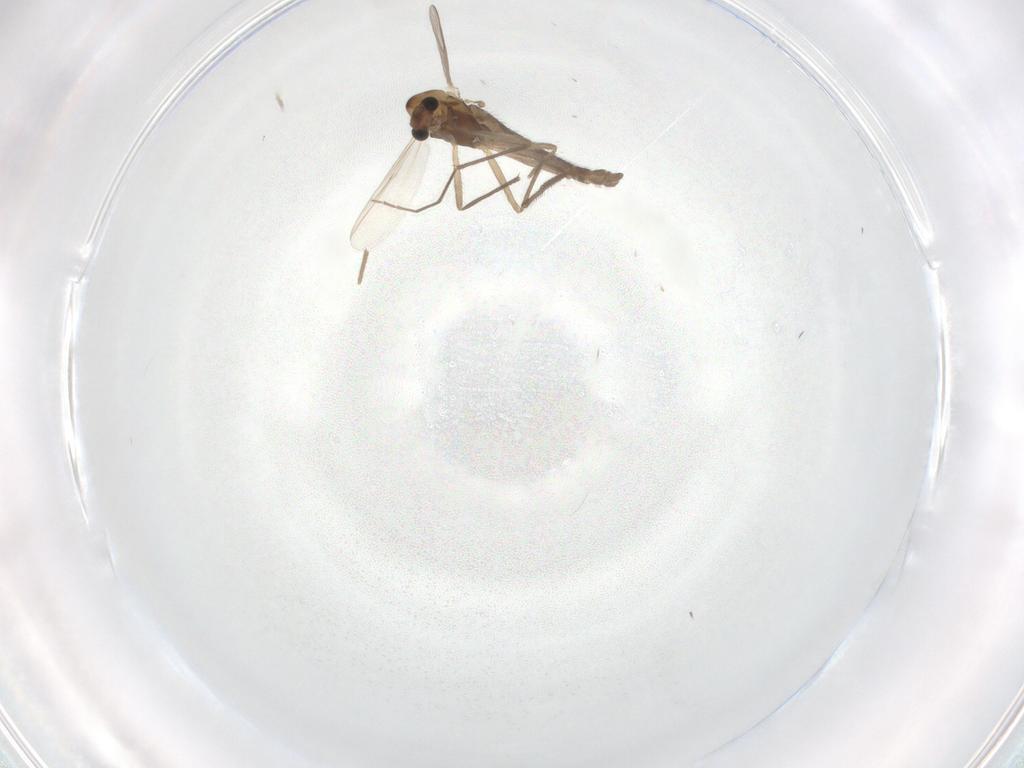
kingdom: Animalia
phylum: Arthropoda
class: Insecta
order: Diptera
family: Chironomidae
